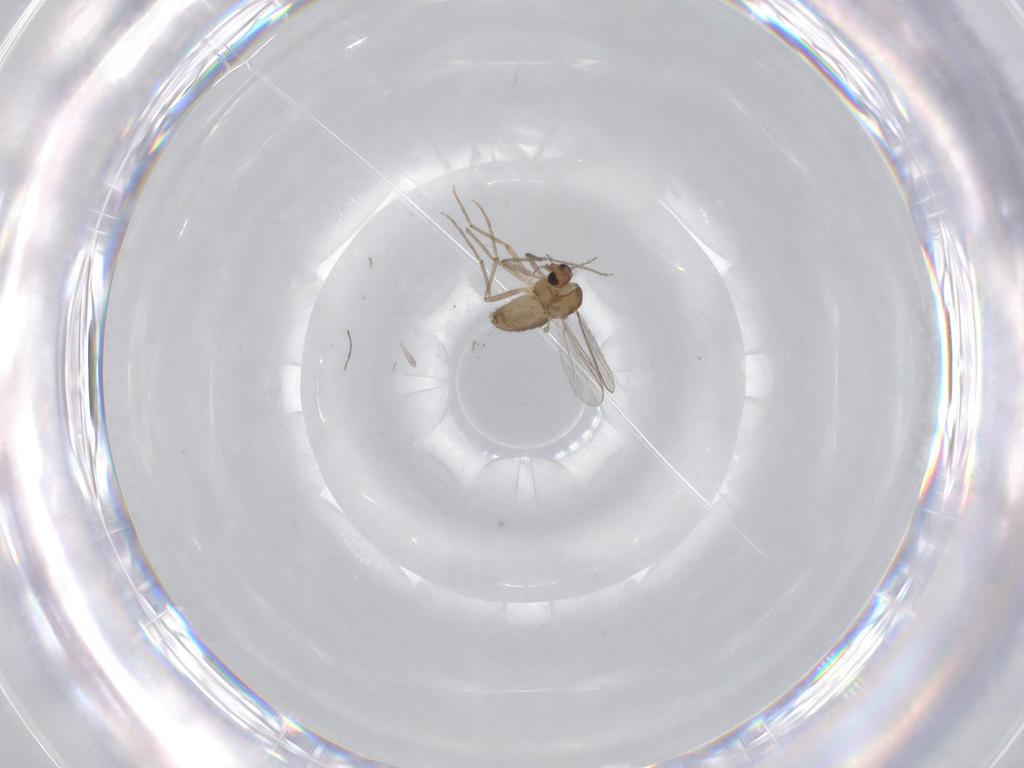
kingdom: Animalia
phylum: Arthropoda
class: Insecta
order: Diptera
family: Chironomidae
